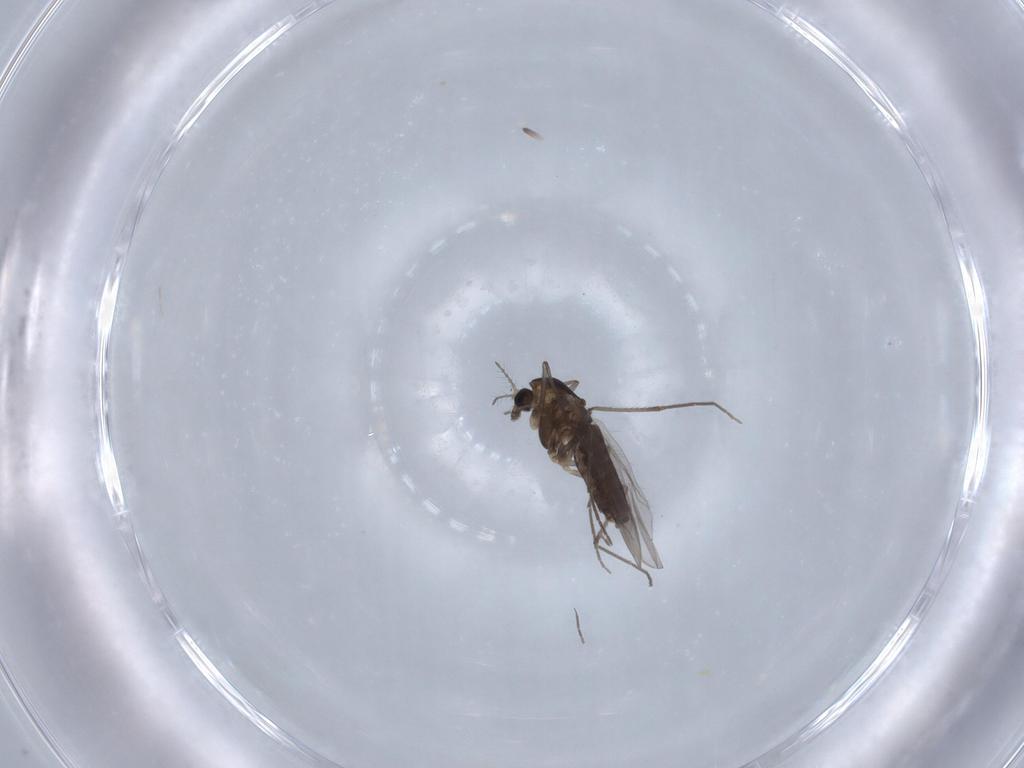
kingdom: Animalia
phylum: Arthropoda
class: Insecta
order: Diptera
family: Chironomidae
